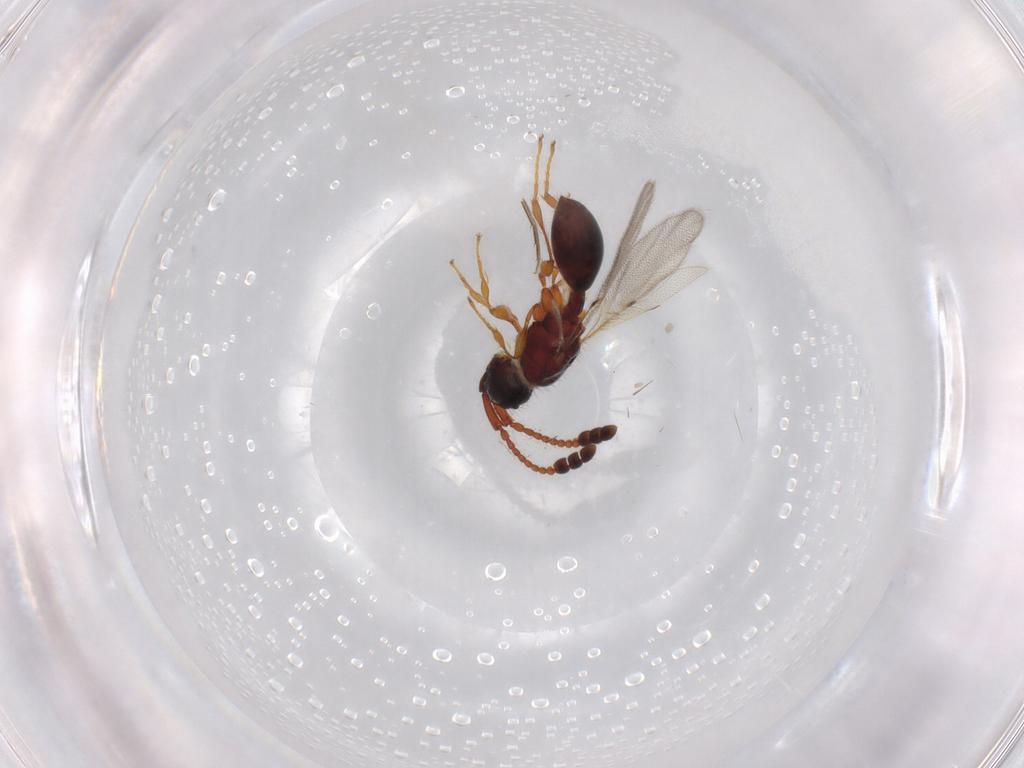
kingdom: Animalia
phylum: Arthropoda
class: Insecta
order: Hymenoptera
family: Diapriidae
